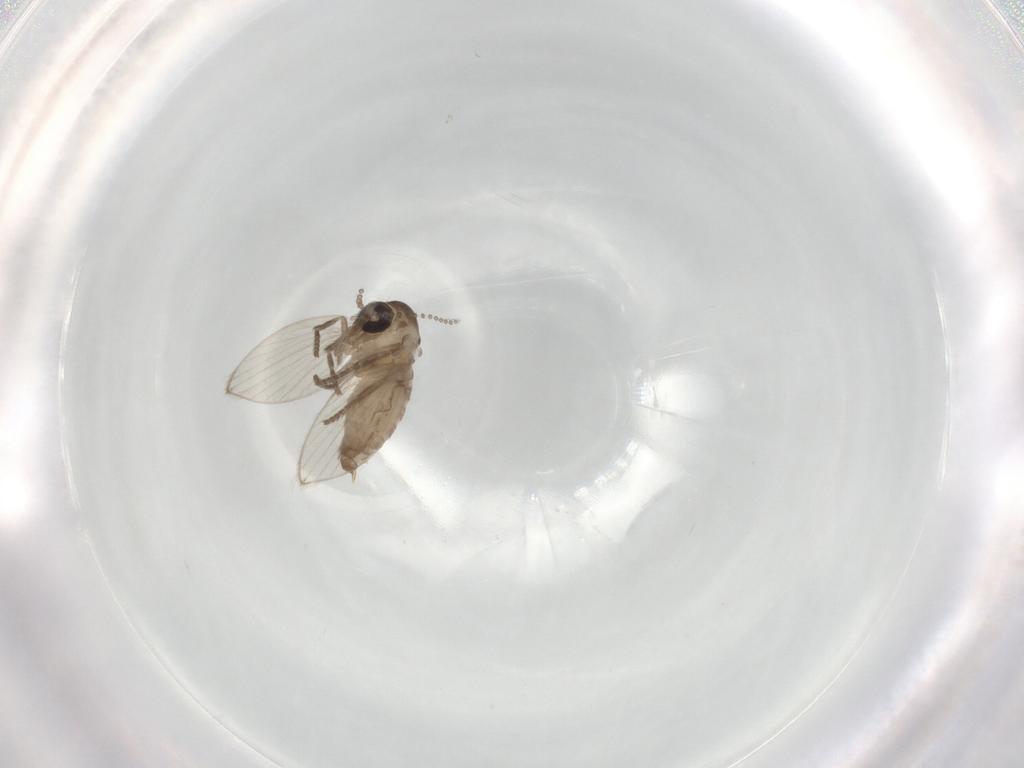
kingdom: Animalia
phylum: Arthropoda
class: Insecta
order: Diptera
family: Psychodidae
